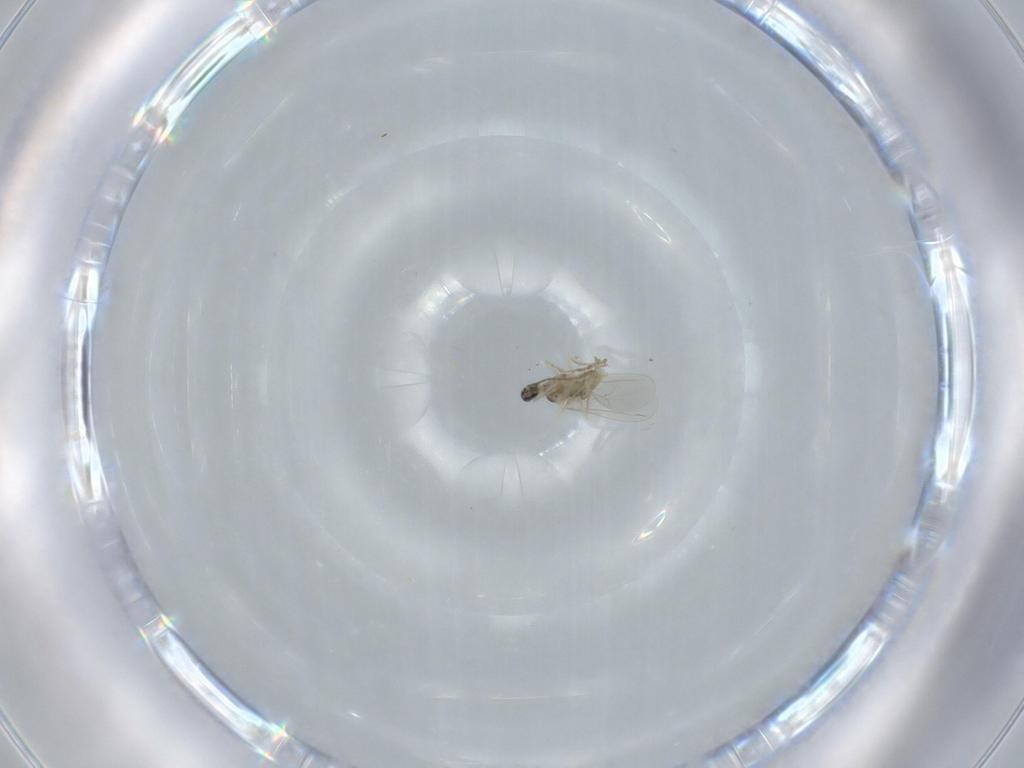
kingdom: Animalia
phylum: Arthropoda
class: Insecta
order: Diptera
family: Cecidomyiidae
